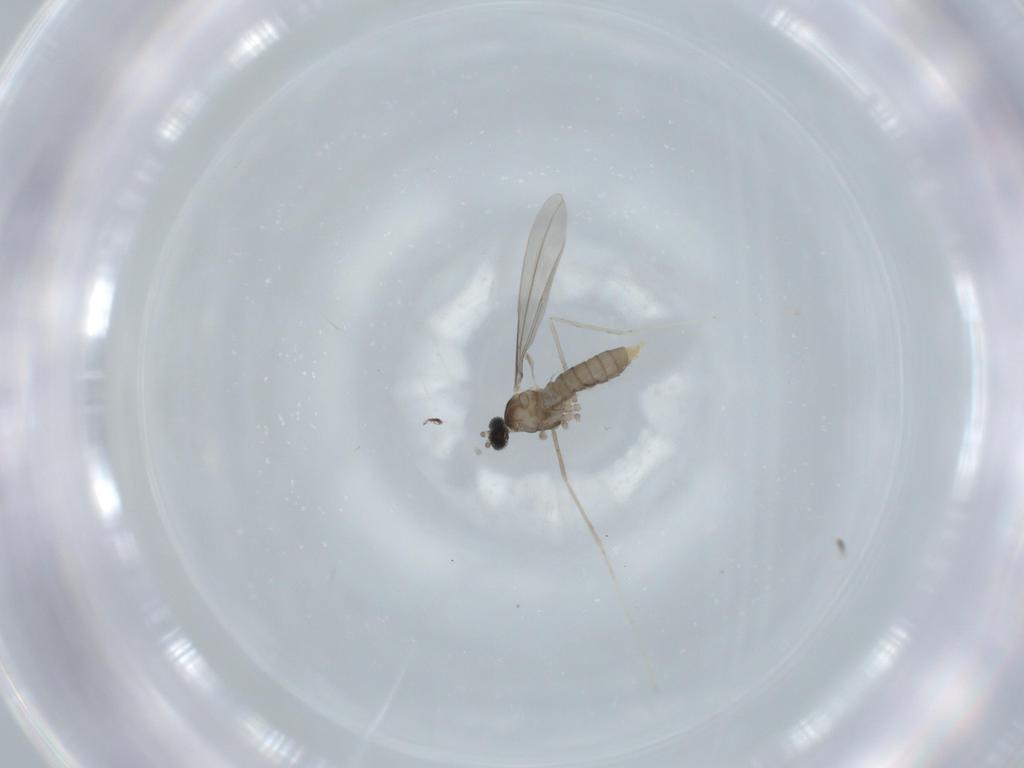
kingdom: Animalia
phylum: Arthropoda
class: Insecta
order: Diptera
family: Cecidomyiidae
